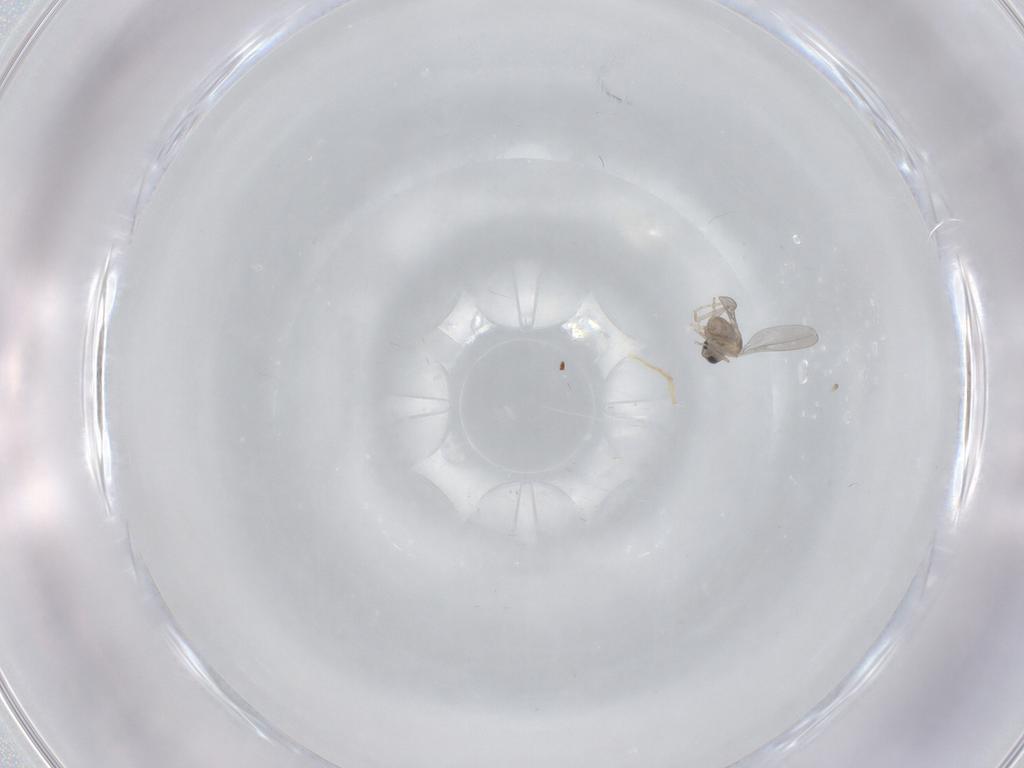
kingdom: Animalia
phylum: Arthropoda
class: Insecta
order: Diptera
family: Cecidomyiidae
